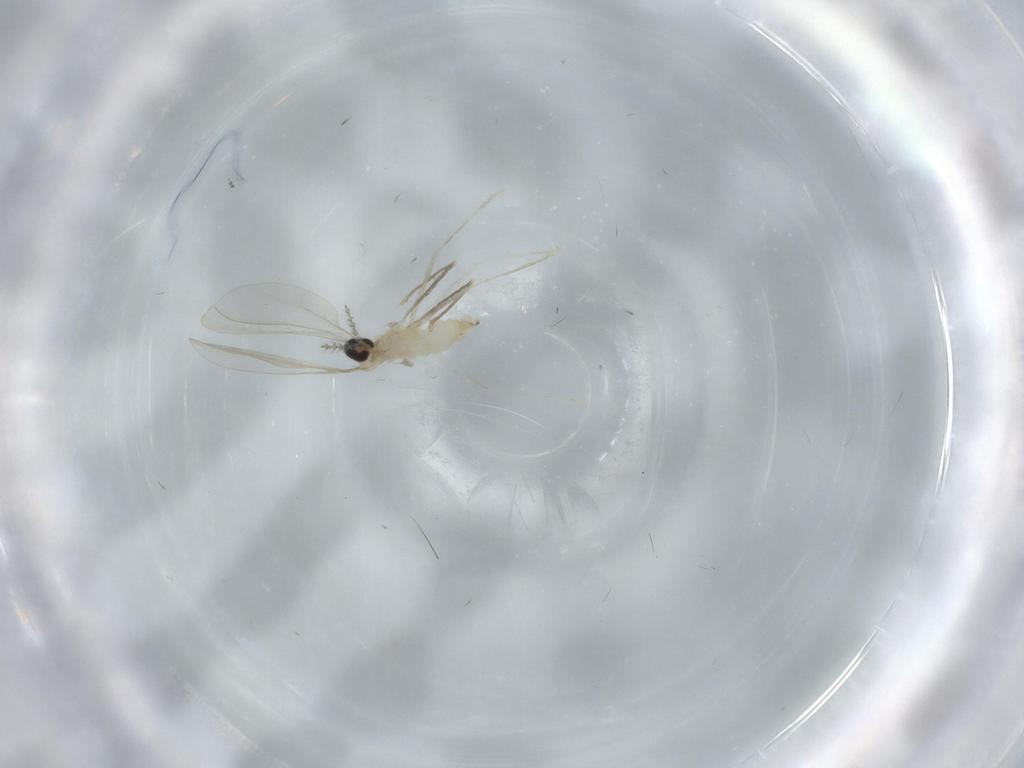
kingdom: Animalia
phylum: Arthropoda
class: Insecta
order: Diptera
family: Cecidomyiidae
